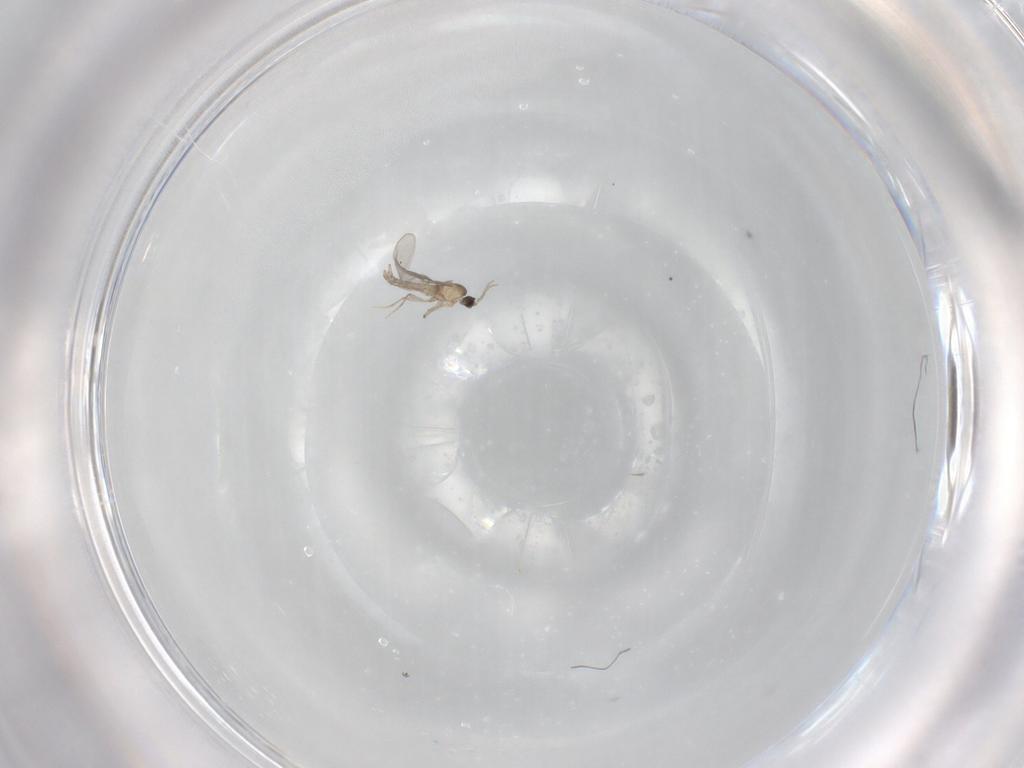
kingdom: Animalia
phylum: Arthropoda
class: Insecta
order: Diptera
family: Cecidomyiidae
